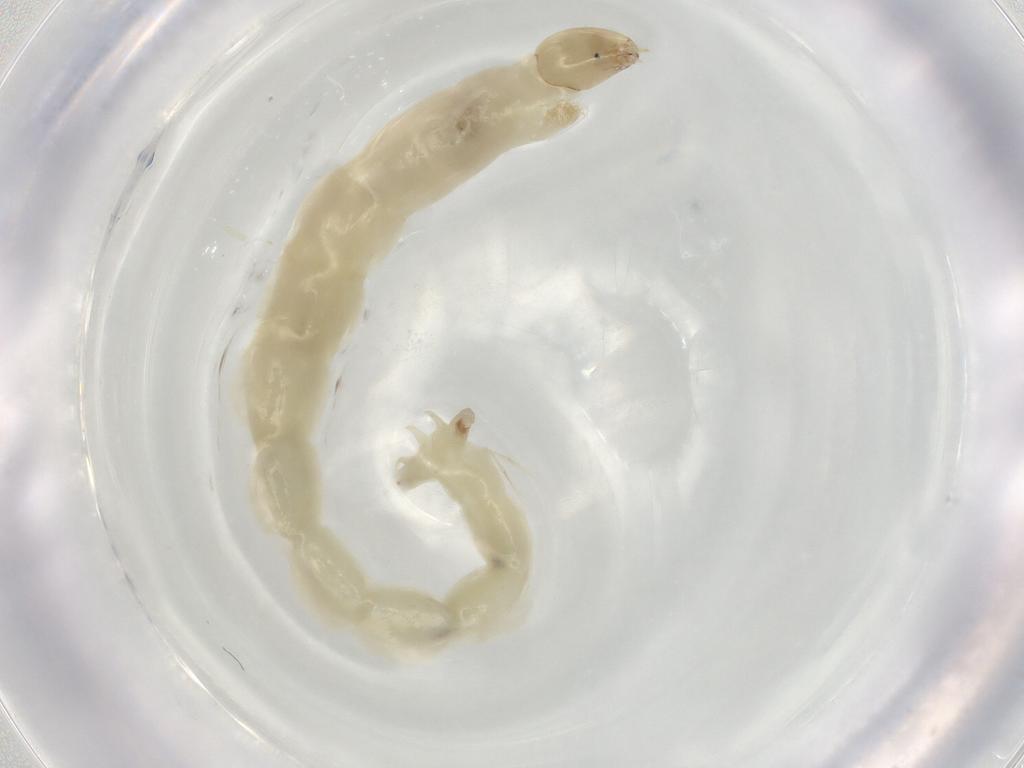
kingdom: Animalia
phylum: Arthropoda
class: Insecta
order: Diptera
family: Chironomidae
